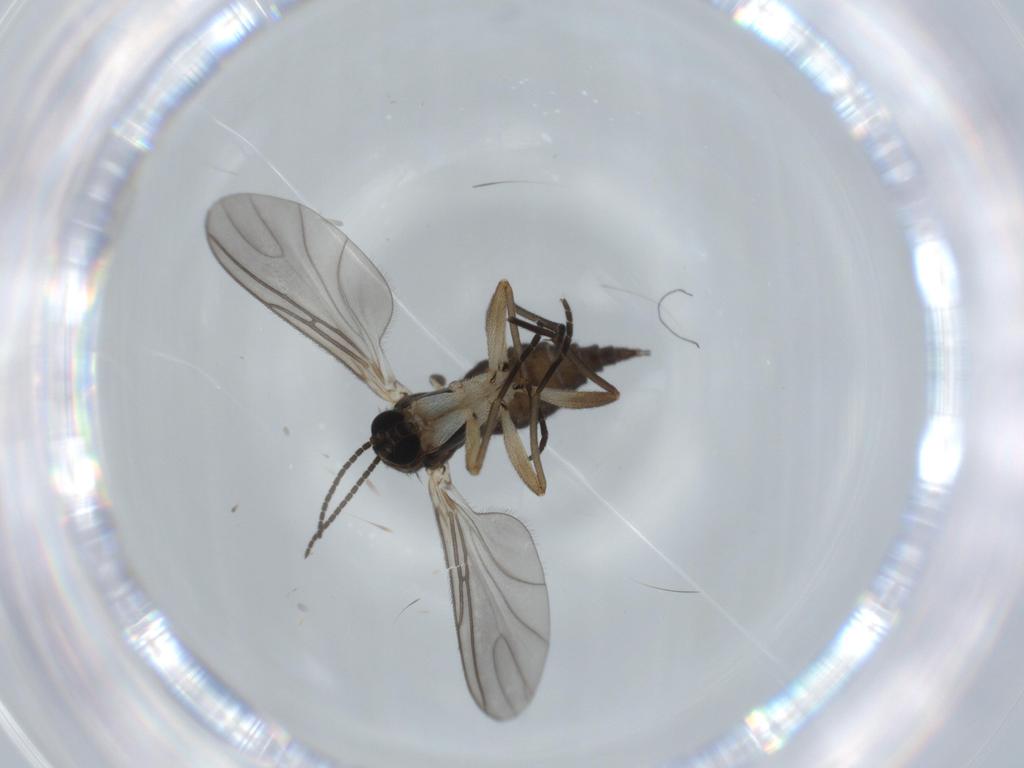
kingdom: Animalia
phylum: Arthropoda
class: Insecta
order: Diptera
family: Sciaridae
